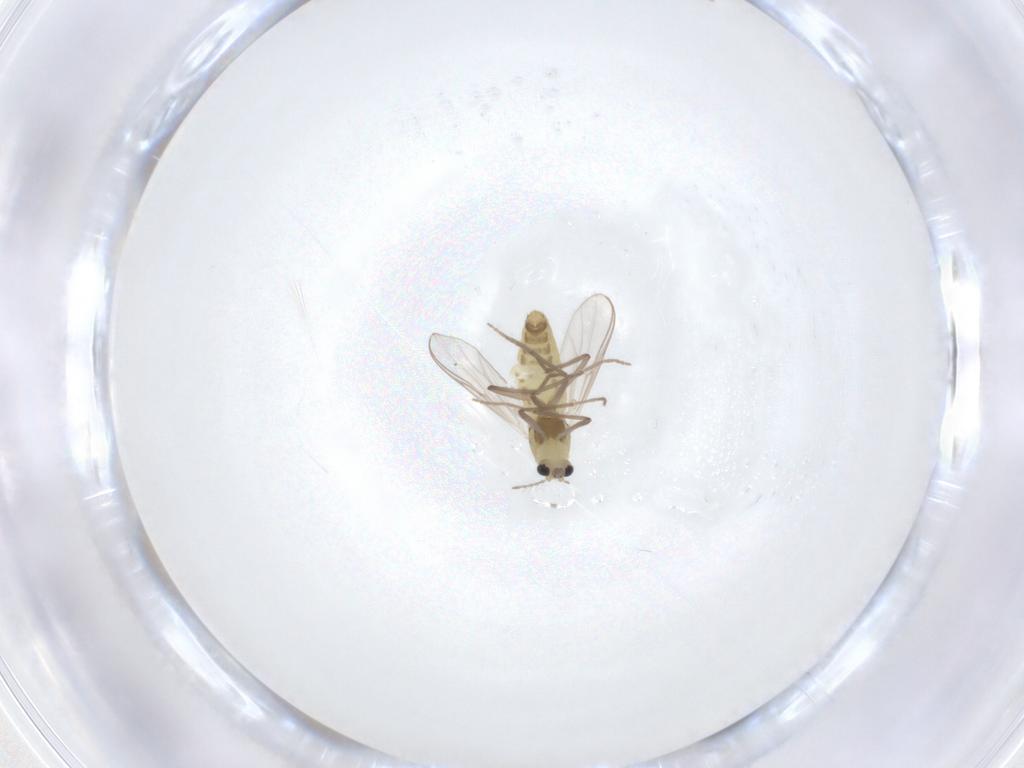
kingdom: Animalia
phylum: Arthropoda
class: Insecta
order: Diptera
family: Chironomidae
